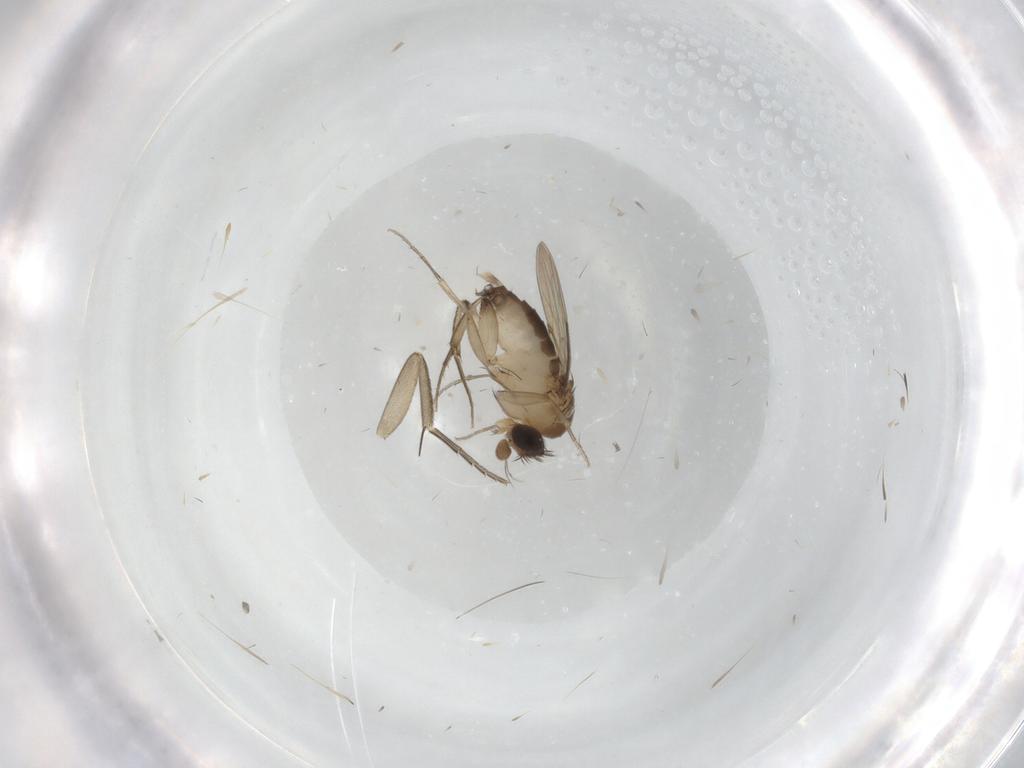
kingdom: Animalia
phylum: Arthropoda
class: Insecta
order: Diptera
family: Phoridae
